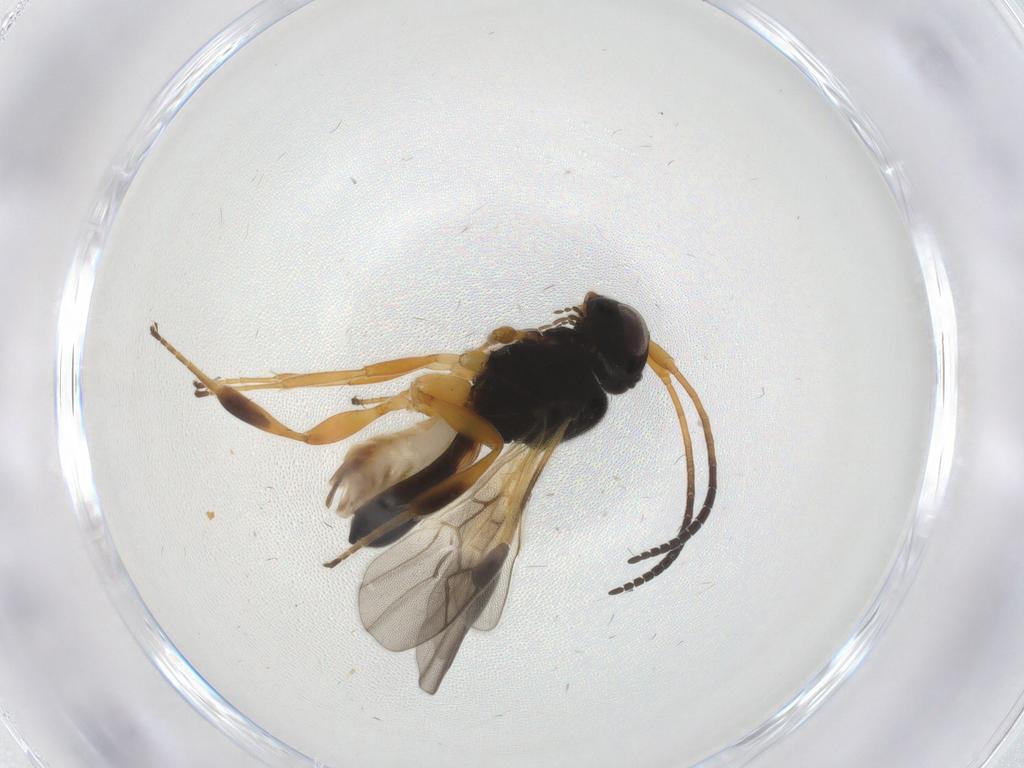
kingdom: Animalia
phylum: Arthropoda
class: Insecta
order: Hymenoptera
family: Braconidae
